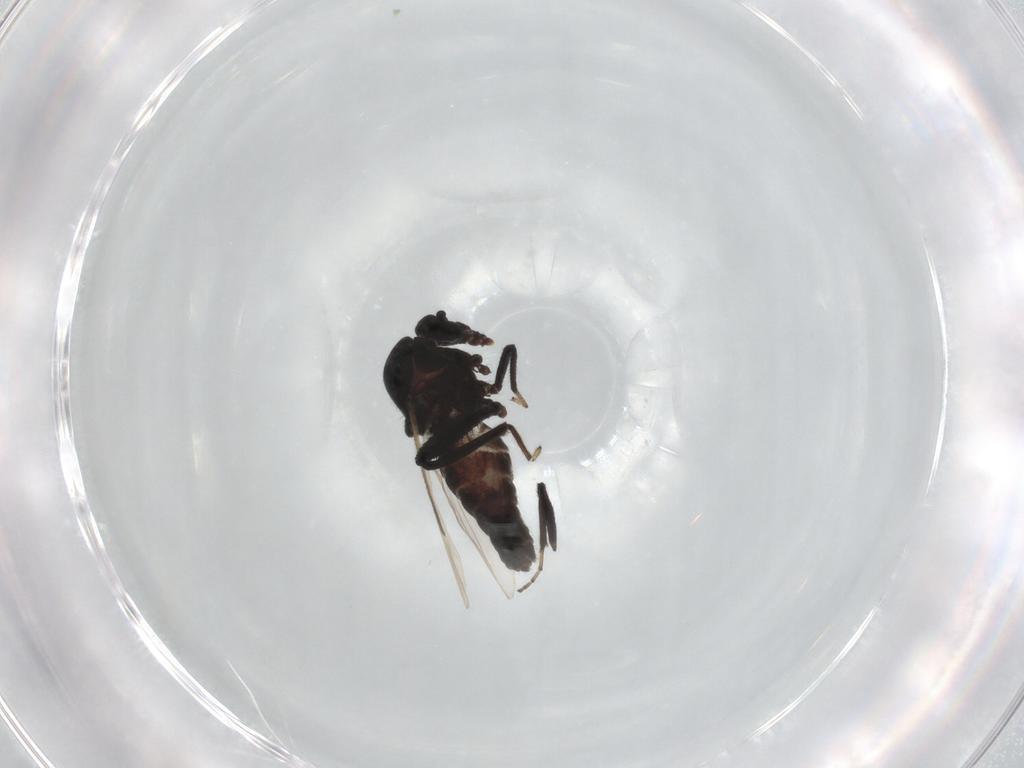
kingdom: Animalia
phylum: Arthropoda
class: Insecta
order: Diptera
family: Ceratopogonidae
